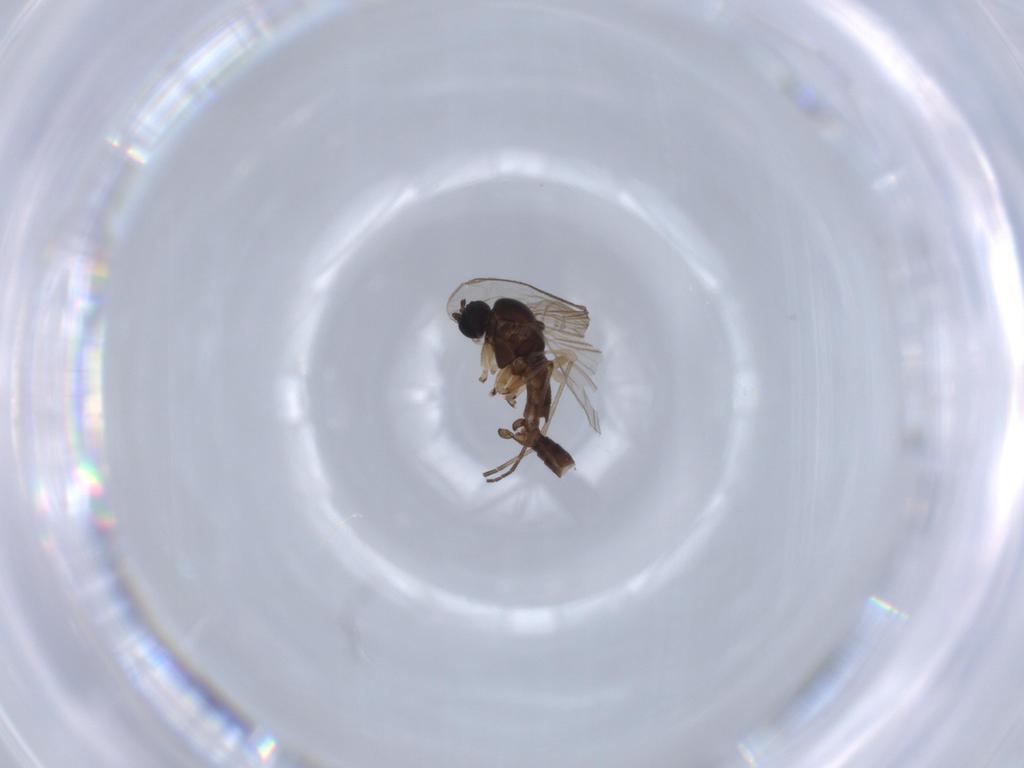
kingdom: Animalia
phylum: Arthropoda
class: Insecta
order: Diptera
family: Sciaridae
